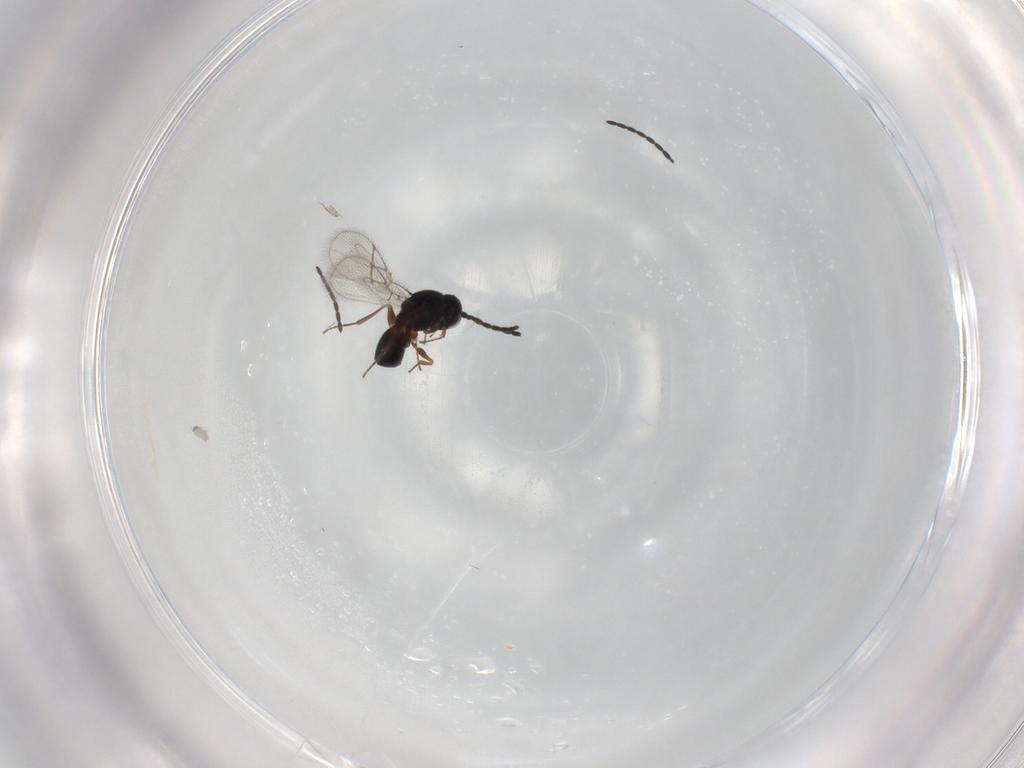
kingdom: Animalia
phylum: Arthropoda
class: Insecta
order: Hymenoptera
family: Figitidae
